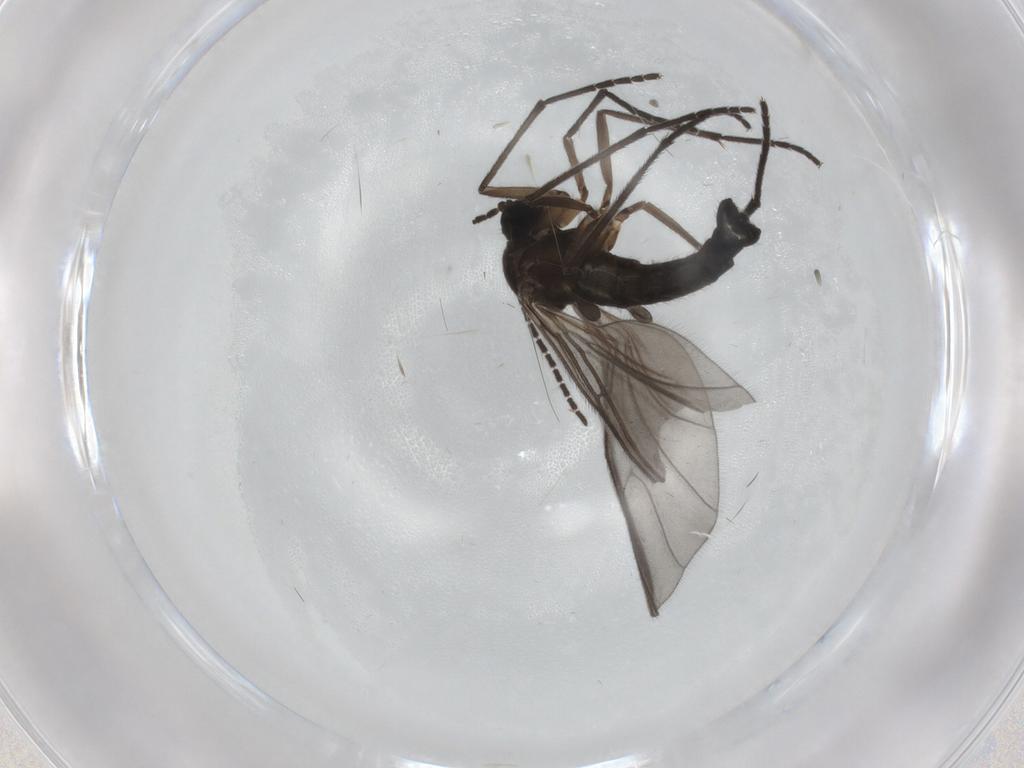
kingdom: Animalia
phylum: Arthropoda
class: Insecta
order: Diptera
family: Sciaridae
